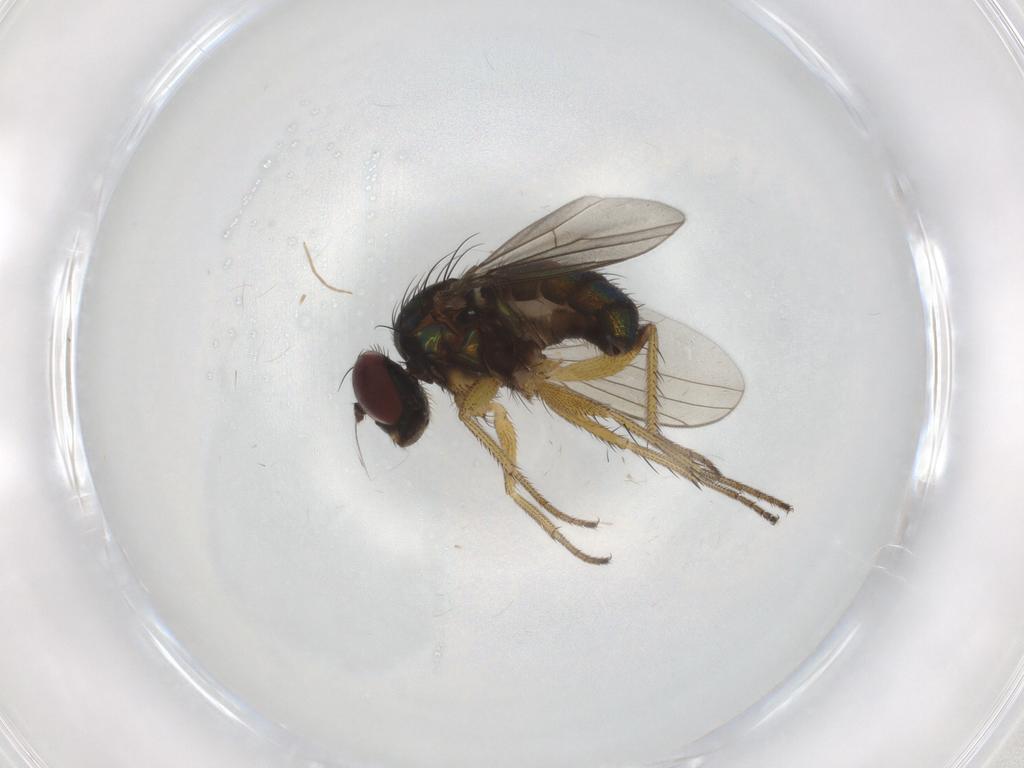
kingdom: Animalia
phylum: Arthropoda
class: Insecta
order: Diptera
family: Dolichopodidae
